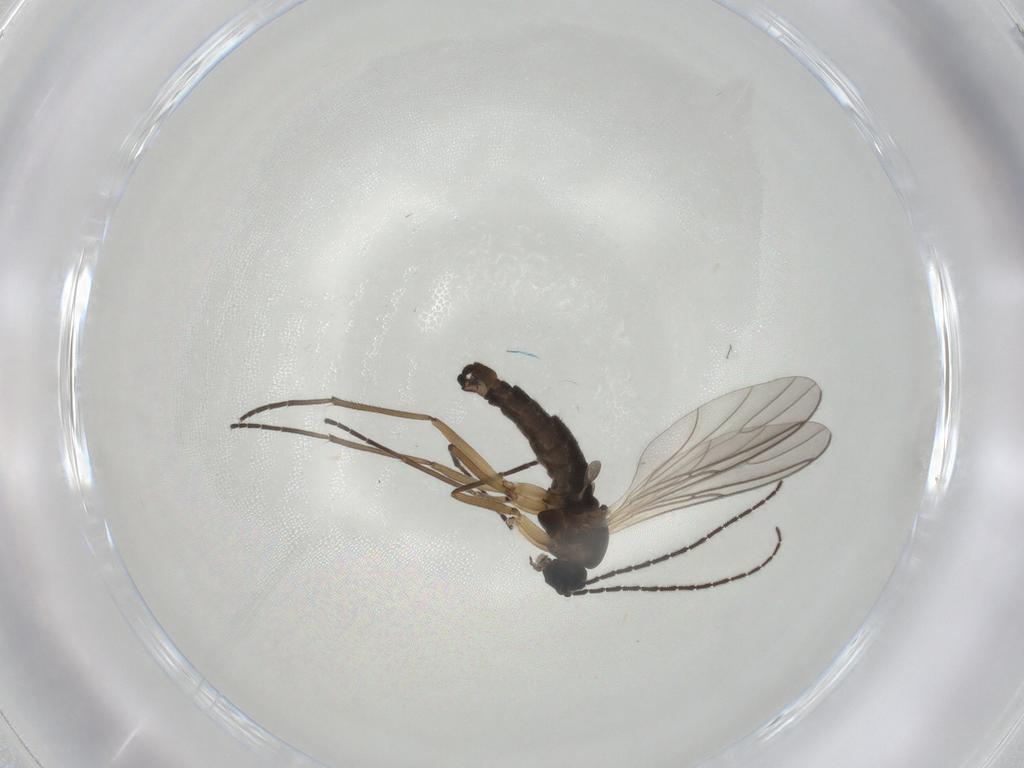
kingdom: Animalia
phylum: Arthropoda
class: Insecta
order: Diptera
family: Sciaridae
